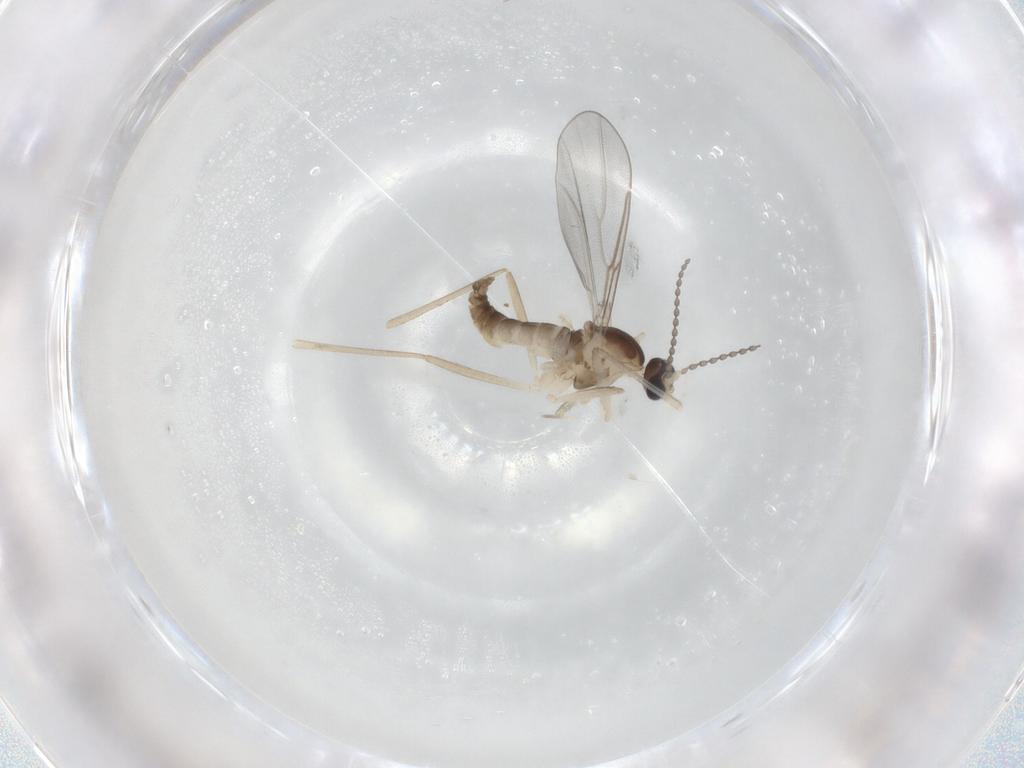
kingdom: Animalia
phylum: Arthropoda
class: Insecta
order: Diptera
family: Cecidomyiidae
